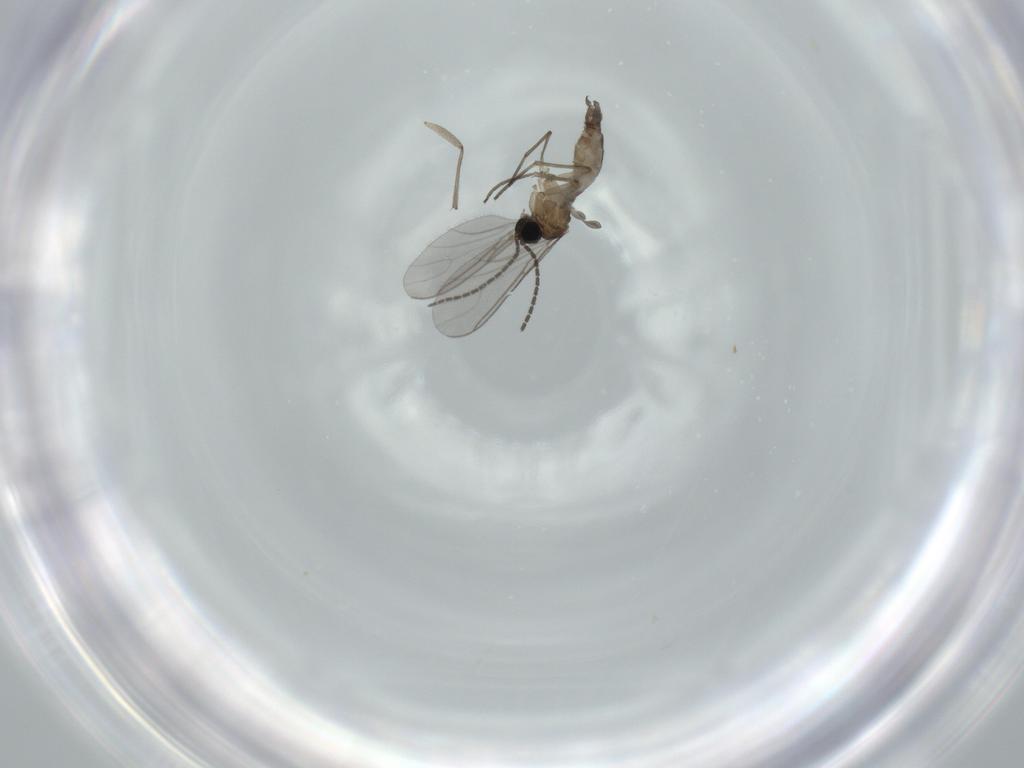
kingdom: Animalia
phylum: Arthropoda
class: Insecta
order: Diptera
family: Sciaridae
